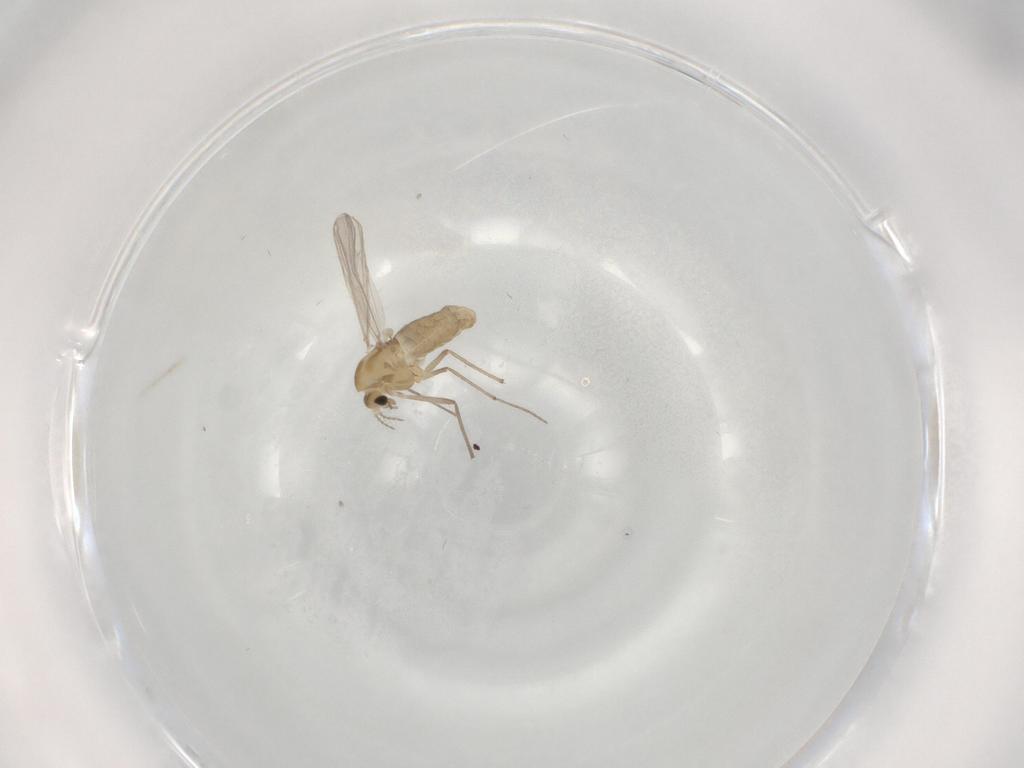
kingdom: Animalia
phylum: Arthropoda
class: Insecta
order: Diptera
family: Chironomidae
